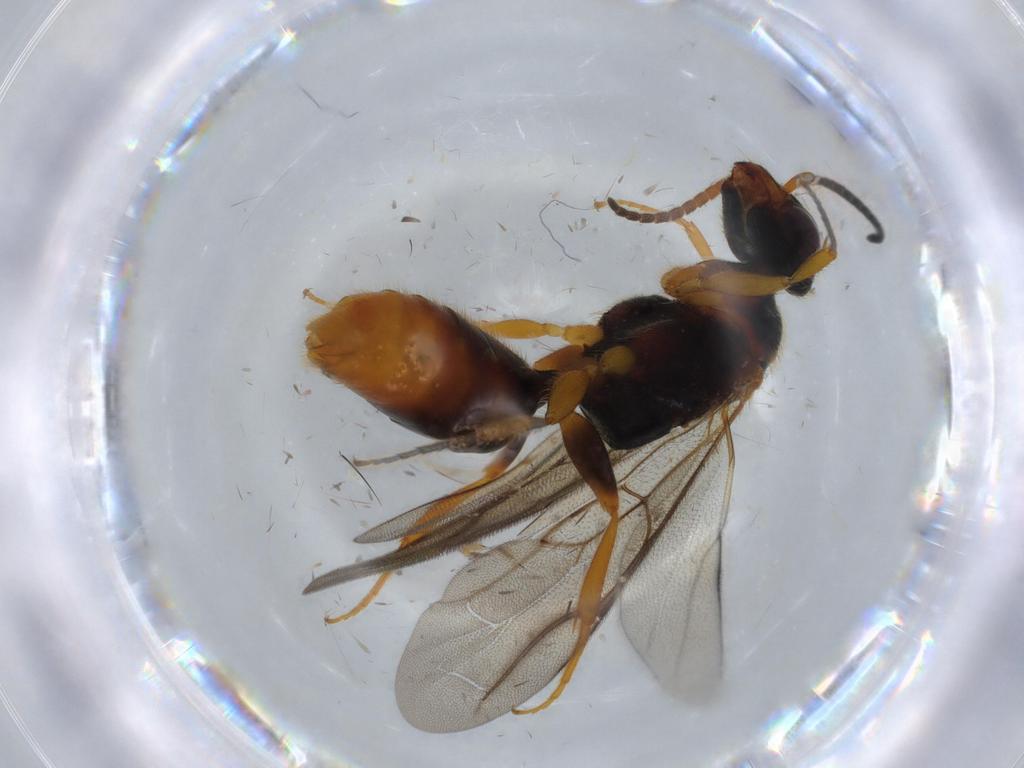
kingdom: Animalia
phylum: Arthropoda
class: Insecta
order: Hymenoptera
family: Bethylidae
